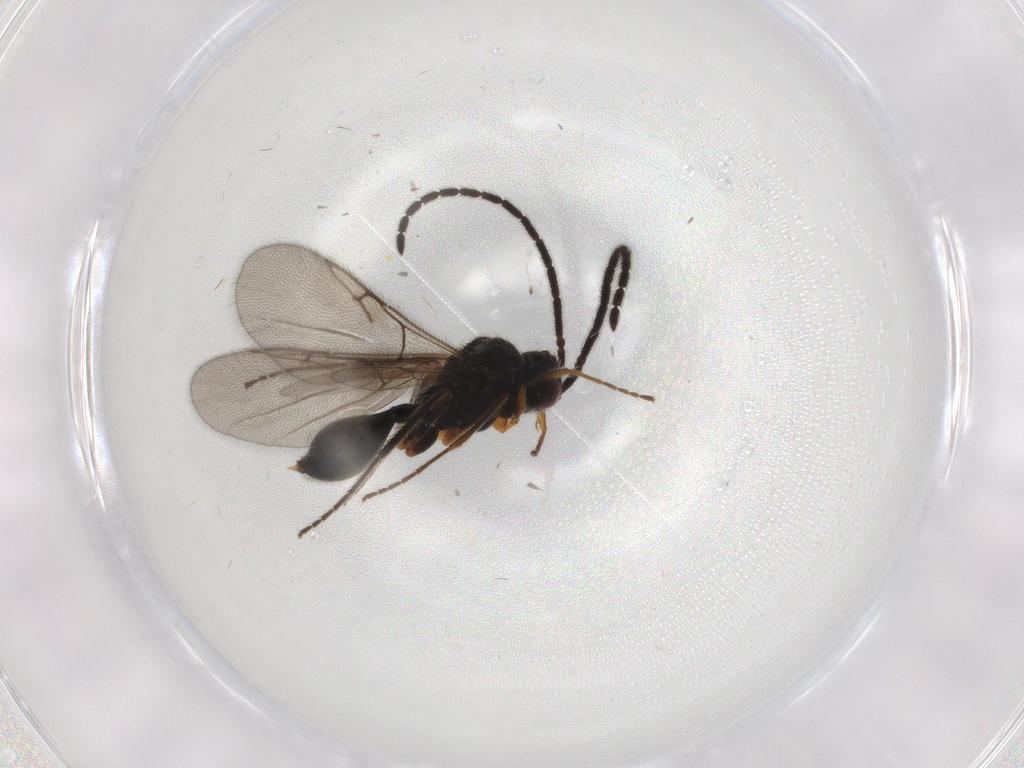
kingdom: Animalia
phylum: Arthropoda
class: Insecta
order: Hymenoptera
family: Diapriidae
